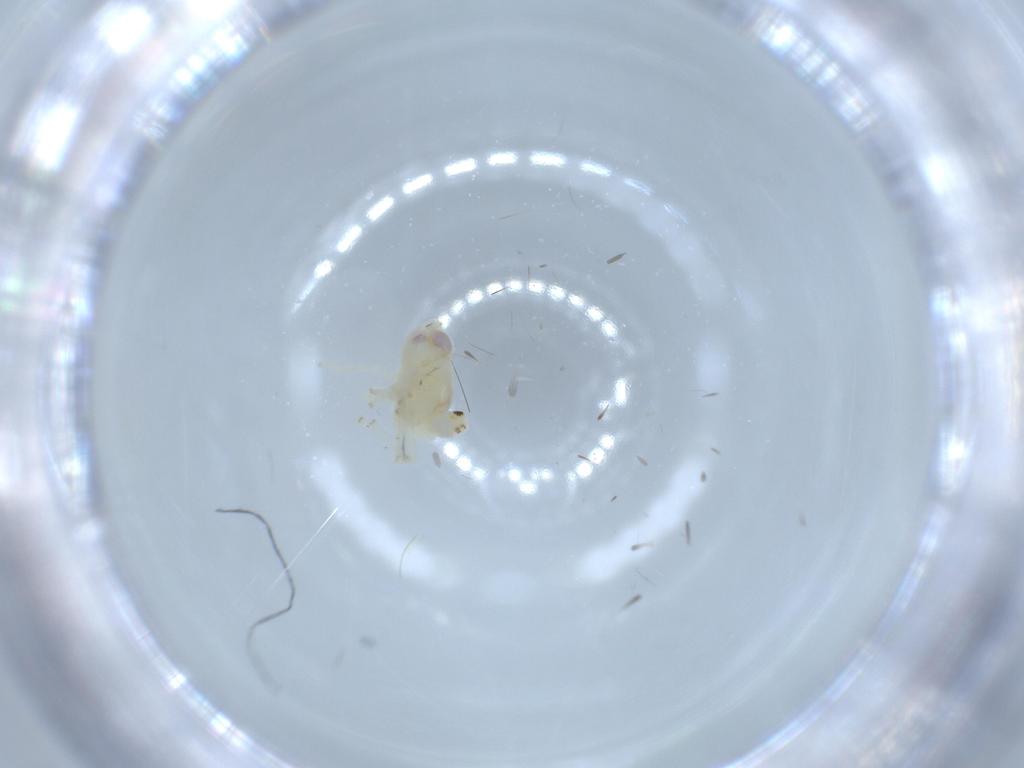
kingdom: Animalia
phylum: Arthropoda
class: Insecta
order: Hemiptera
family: Nogodinidae
